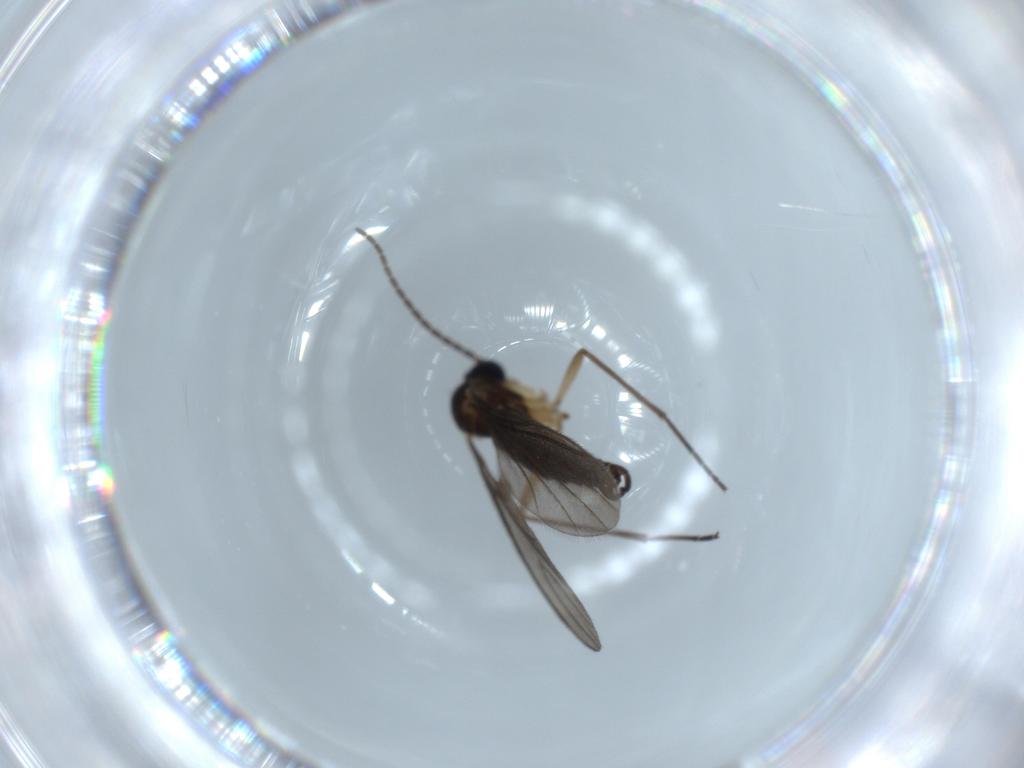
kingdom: Animalia
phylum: Arthropoda
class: Insecta
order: Diptera
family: Sciaridae
